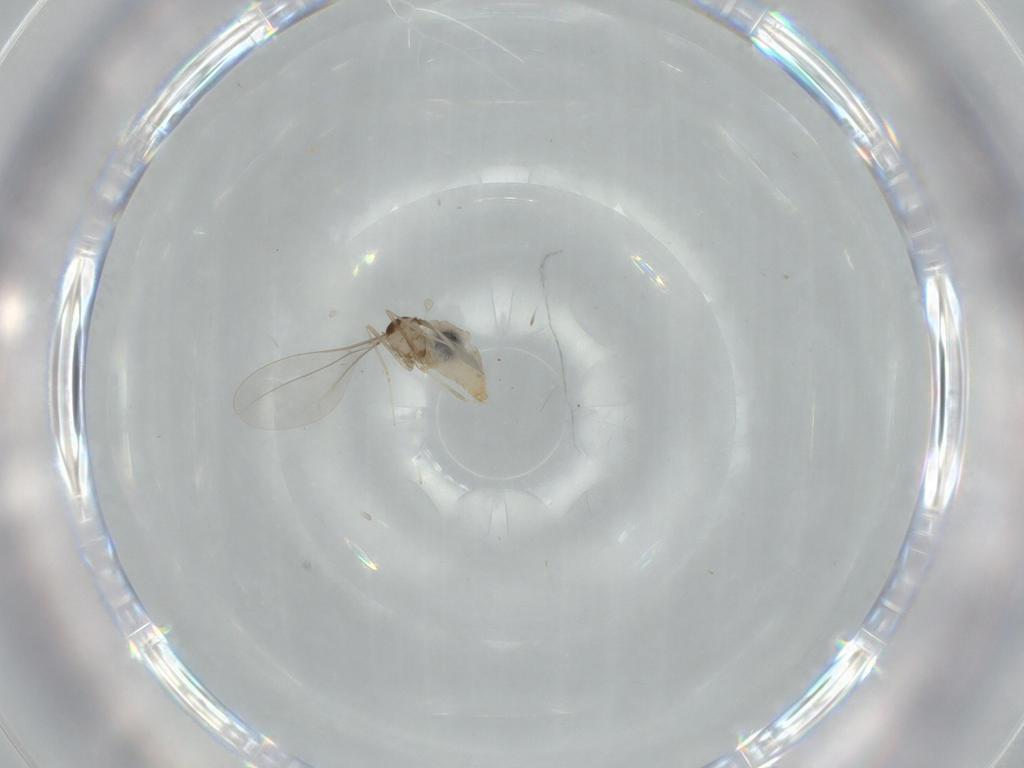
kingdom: Animalia
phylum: Arthropoda
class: Insecta
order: Diptera
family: Cecidomyiidae
